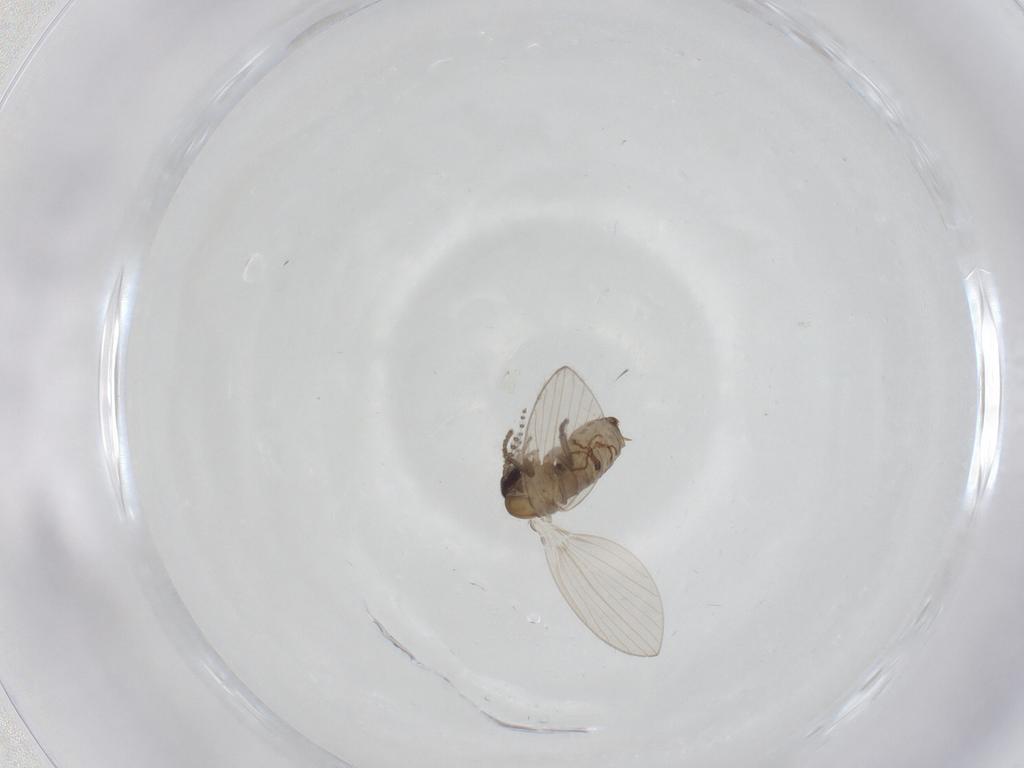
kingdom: Animalia
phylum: Arthropoda
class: Insecta
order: Diptera
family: Psychodidae
